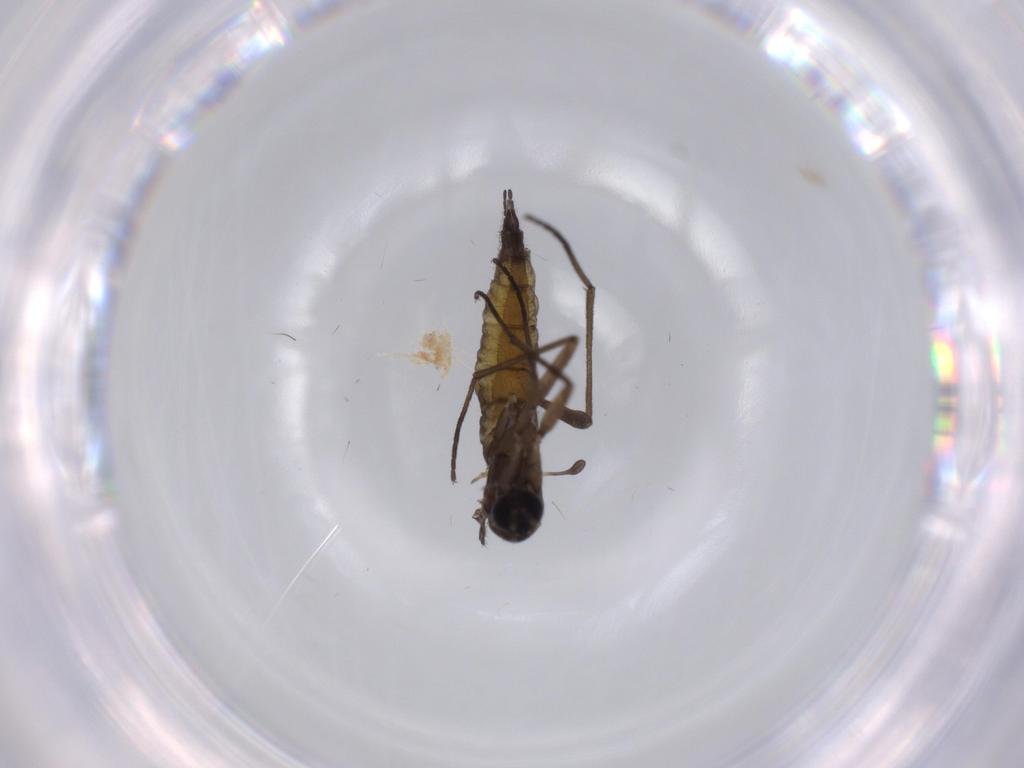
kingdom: Animalia
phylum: Arthropoda
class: Insecta
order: Diptera
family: Sciaridae
